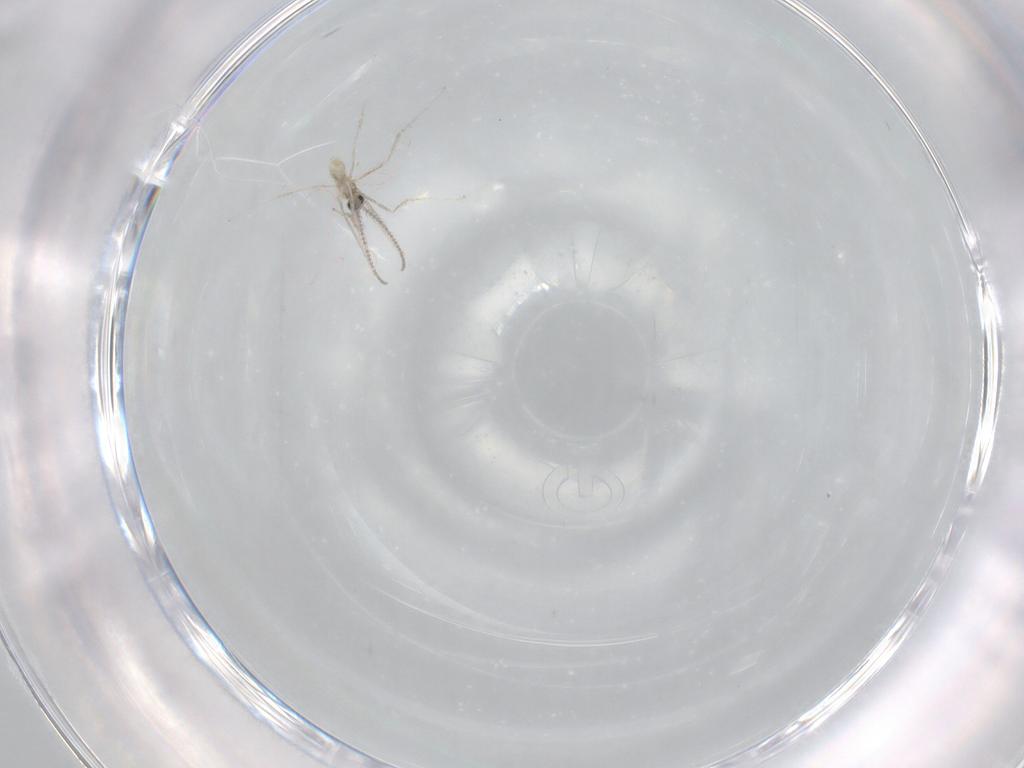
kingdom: Animalia
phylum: Arthropoda
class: Insecta
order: Diptera
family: Cecidomyiidae
